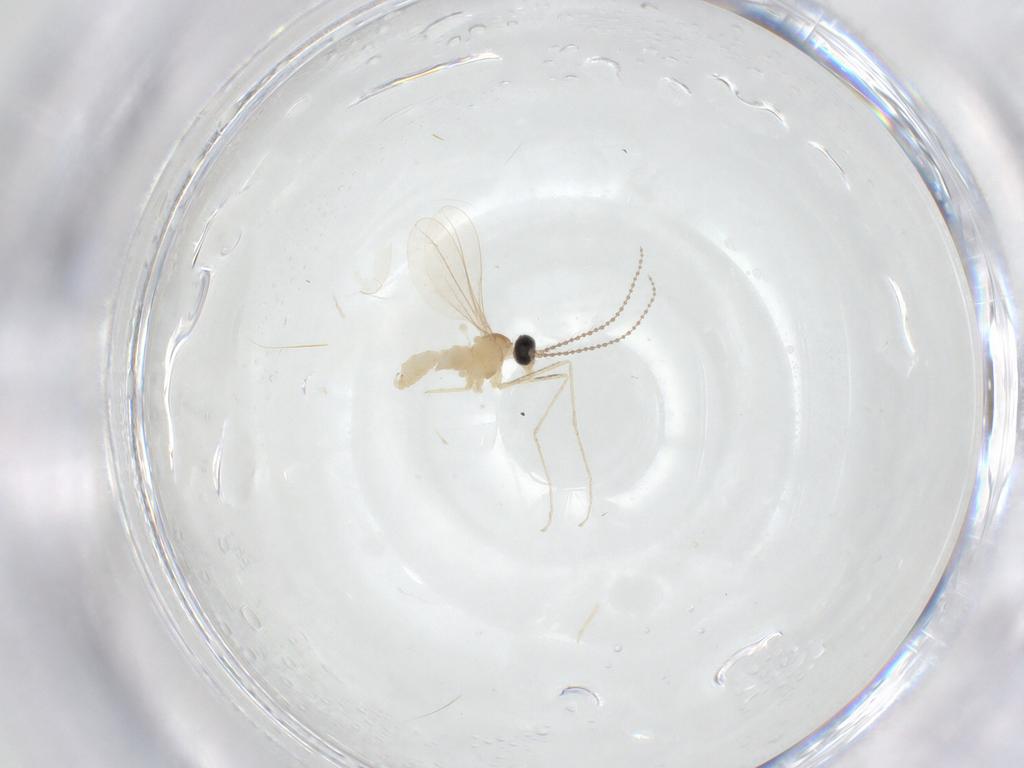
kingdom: Animalia
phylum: Arthropoda
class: Insecta
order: Diptera
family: Cecidomyiidae
